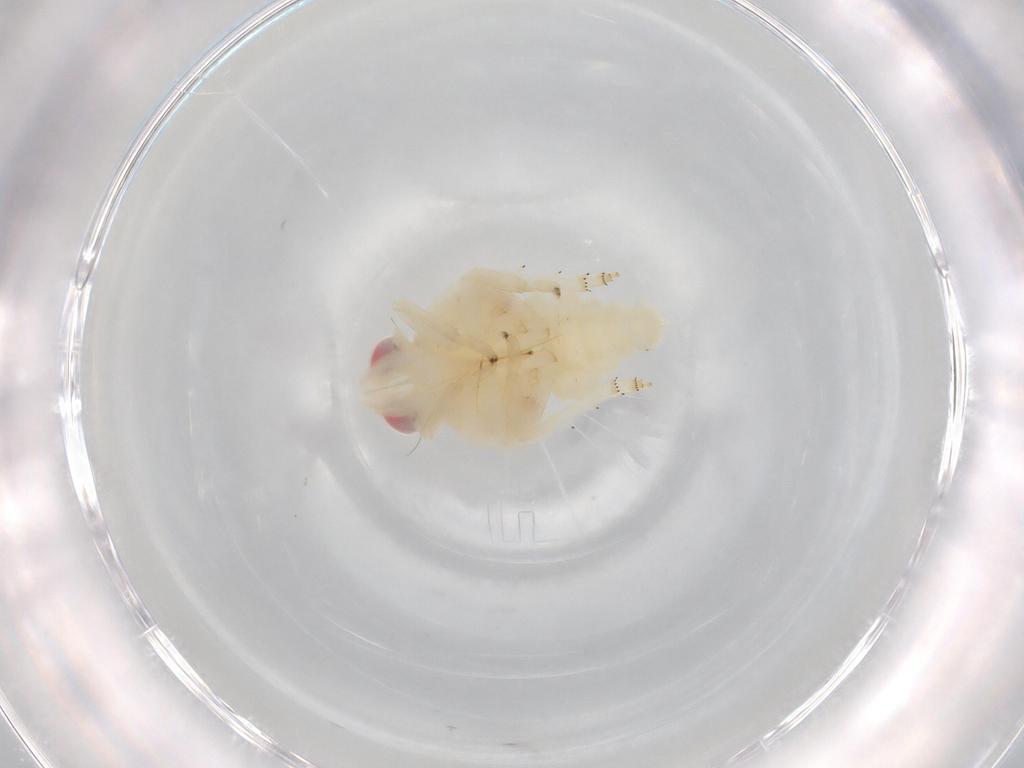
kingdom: Animalia
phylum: Arthropoda
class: Insecta
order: Hemiptera
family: Nogodinidae
